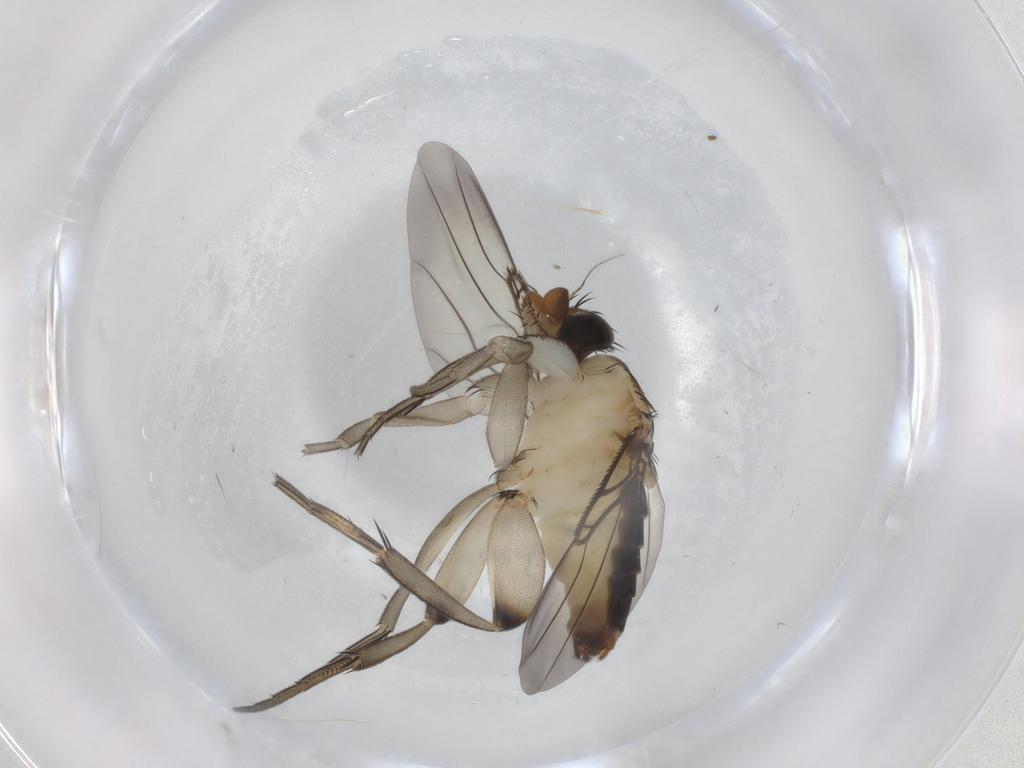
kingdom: Animalia
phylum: Arthropoda
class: Insecta
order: Diptera
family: Phoridae
